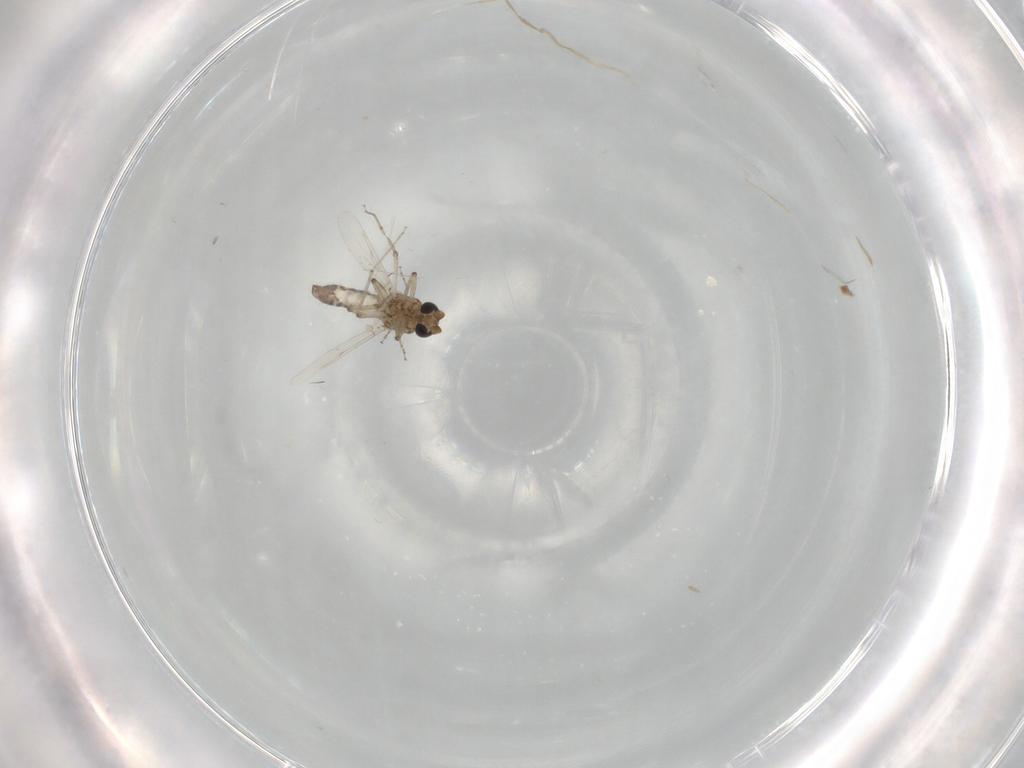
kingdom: Animalia
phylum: Arthropoda
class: Insecta
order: Diptera
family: Ceratopogonidae
